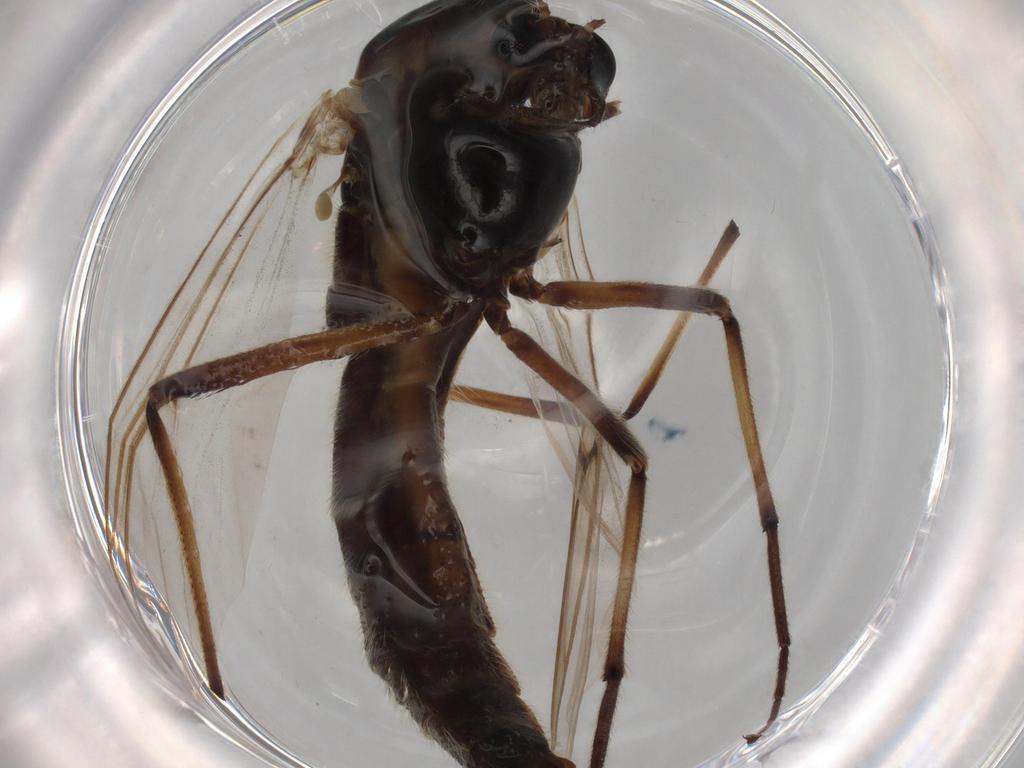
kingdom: Animalia
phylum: Arthropoda
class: Insecta
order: Diptera
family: Chironomidae
